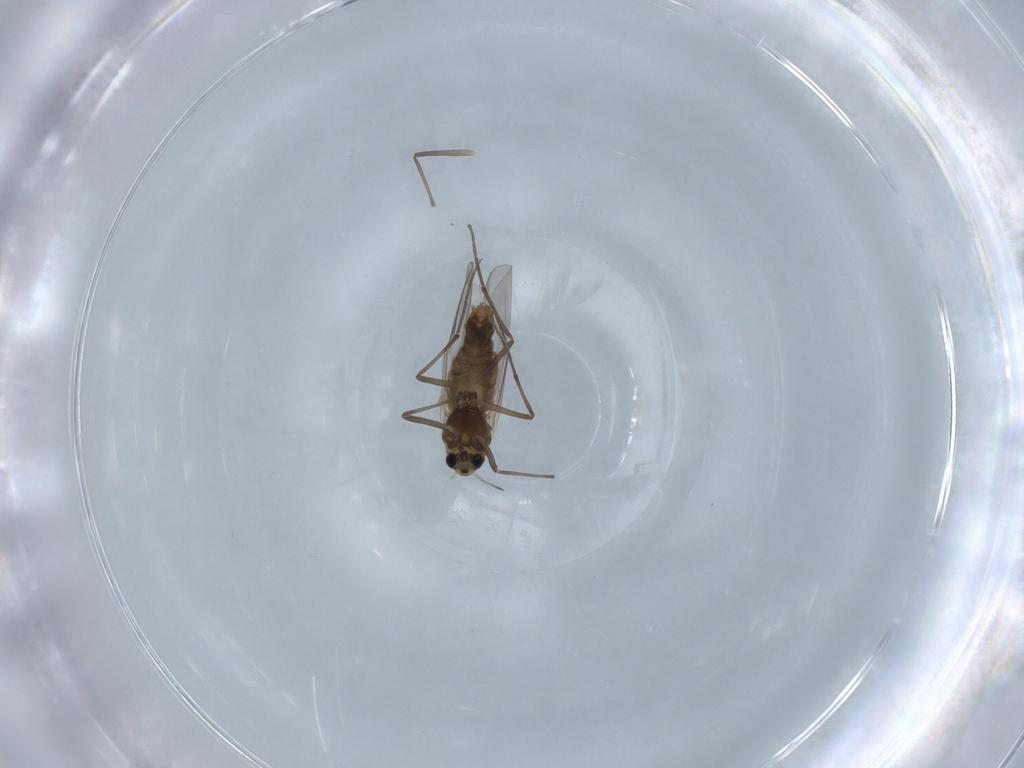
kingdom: Animalia
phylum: Arthropoda
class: Insecta
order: Diptera
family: Chironomidae
